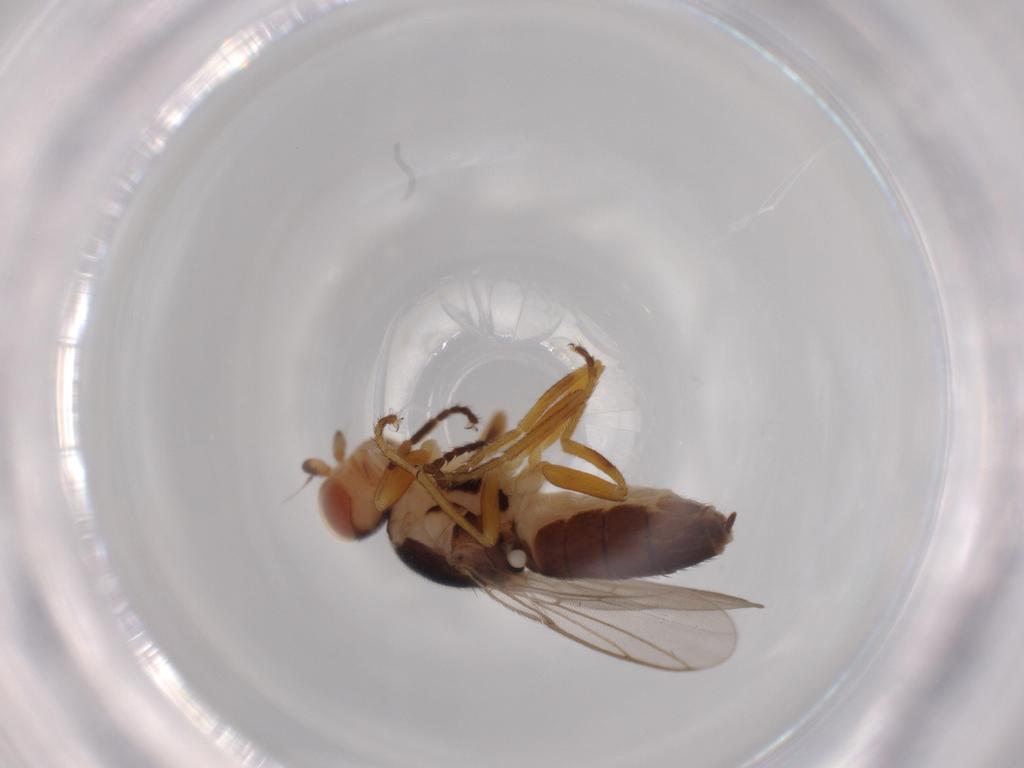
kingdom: Animalia
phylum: Arthropoda
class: Insecta
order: Diptera
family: Chloropidae
